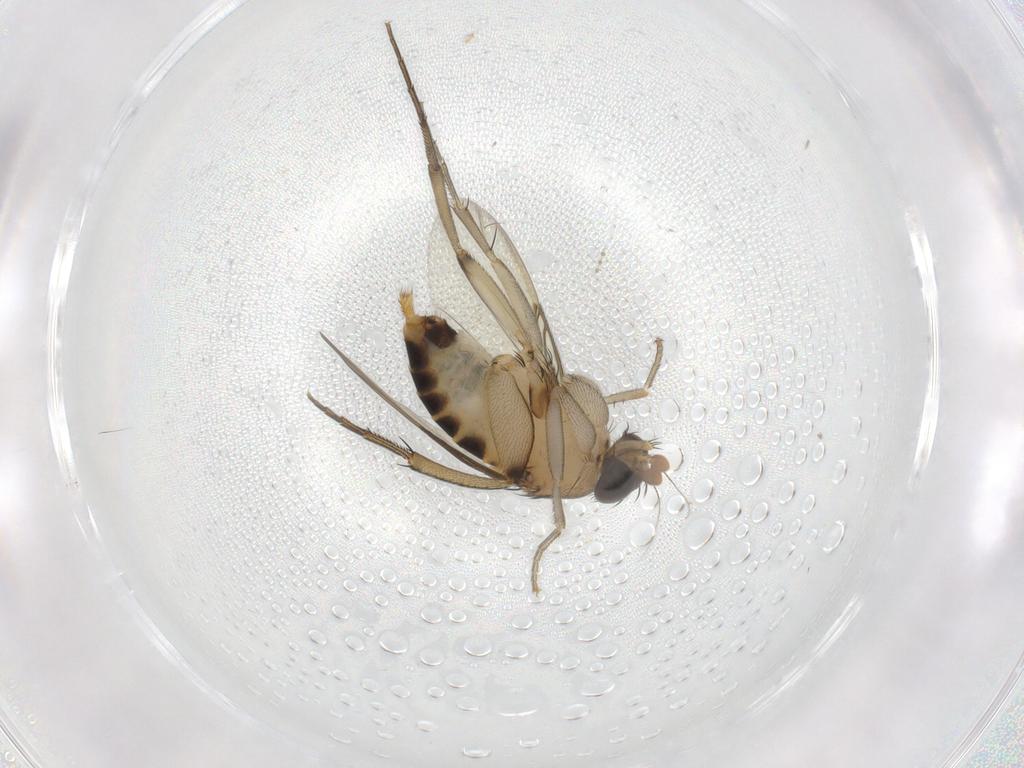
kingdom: Animalia
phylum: Arthropoda
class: Insecta
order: Diptera
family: Phoridae
